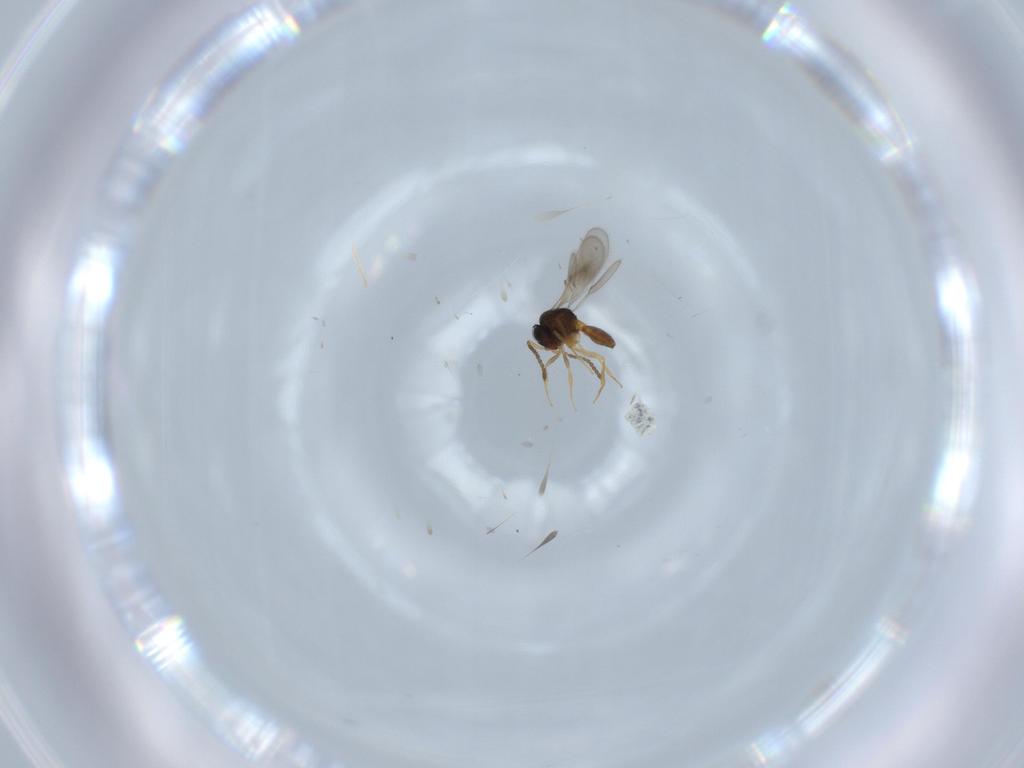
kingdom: Animalia
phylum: Arthropoda
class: Insecta
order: Hymenoptera
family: Scelionidae
